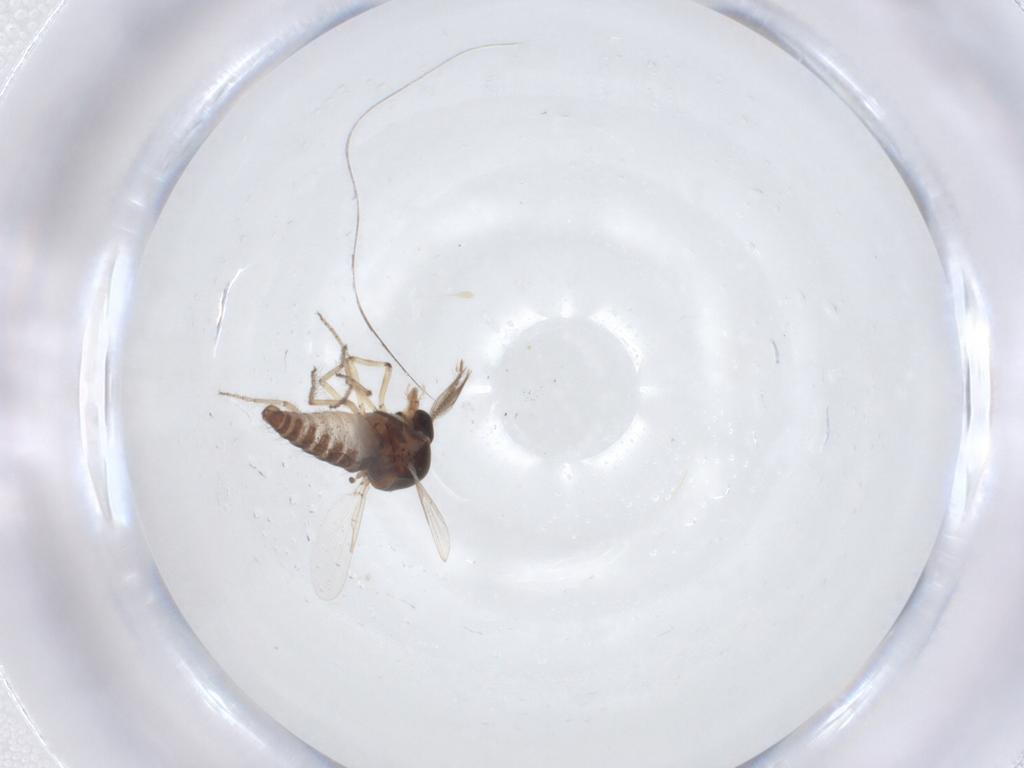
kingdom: Animalia
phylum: Arthropoda
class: Insecta
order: Diptera
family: Ceratopogonidae
